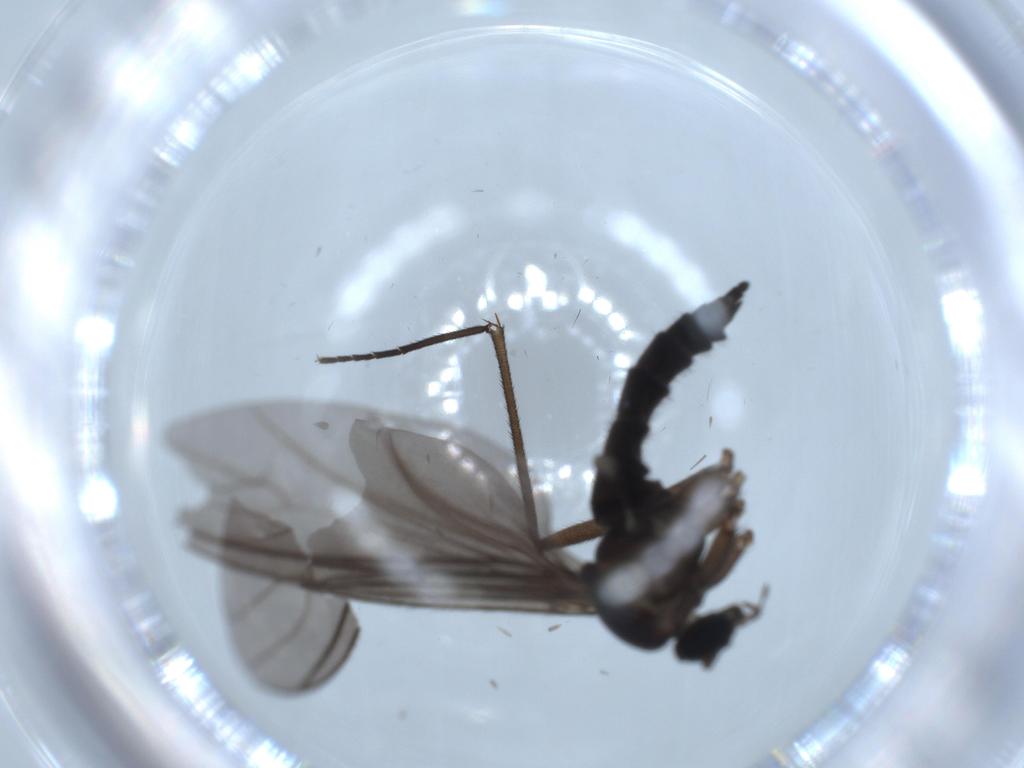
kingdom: Animalia
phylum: Arthropoda
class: Insecta
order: Diptera
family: Sciaridae
